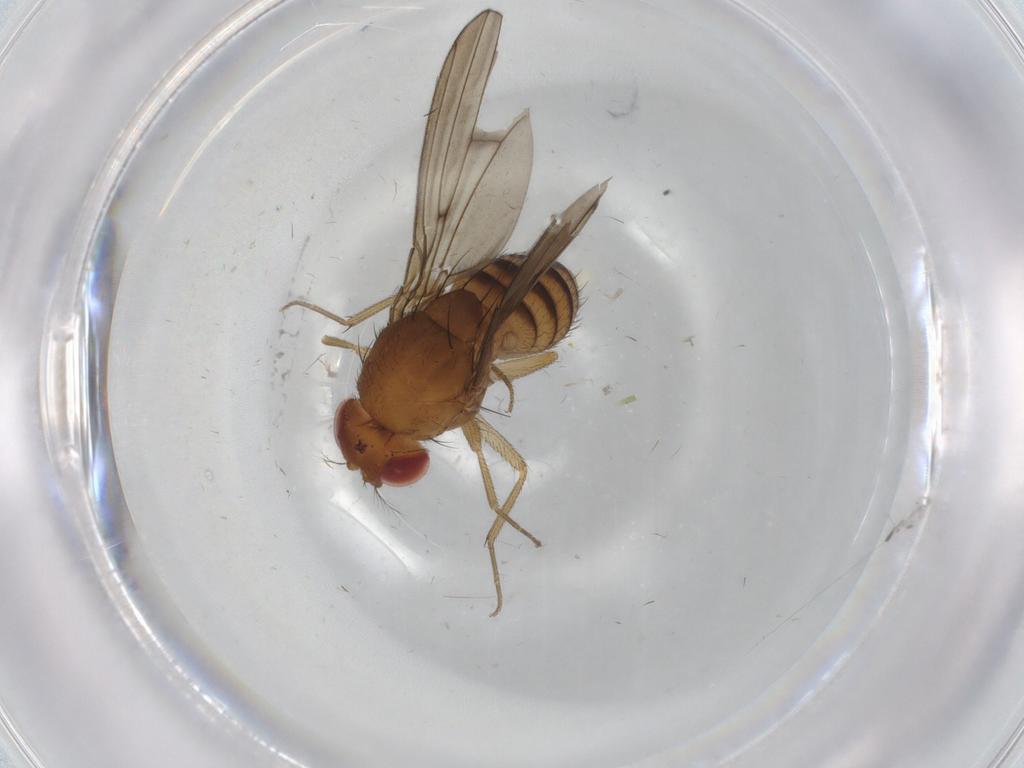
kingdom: Animalia
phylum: Arthropoda
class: Insecta
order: Diptera
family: Drosophilidae
